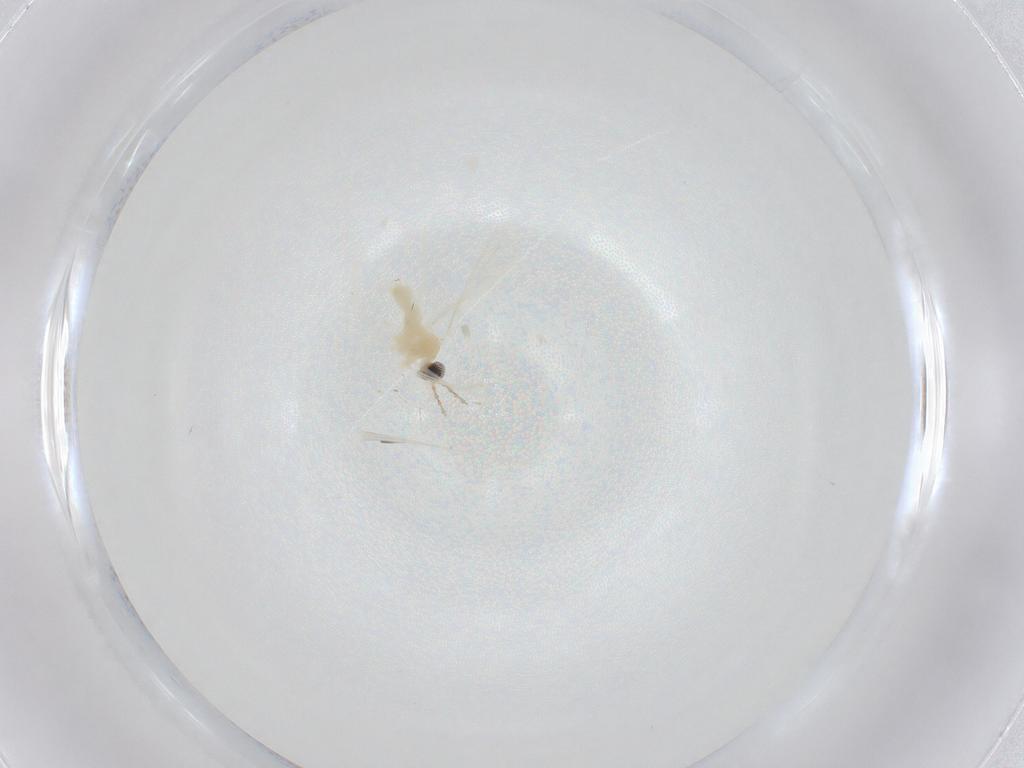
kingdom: Animalia
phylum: Arthropoda
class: Insecta
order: Diptera
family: Cecidomyiidae
